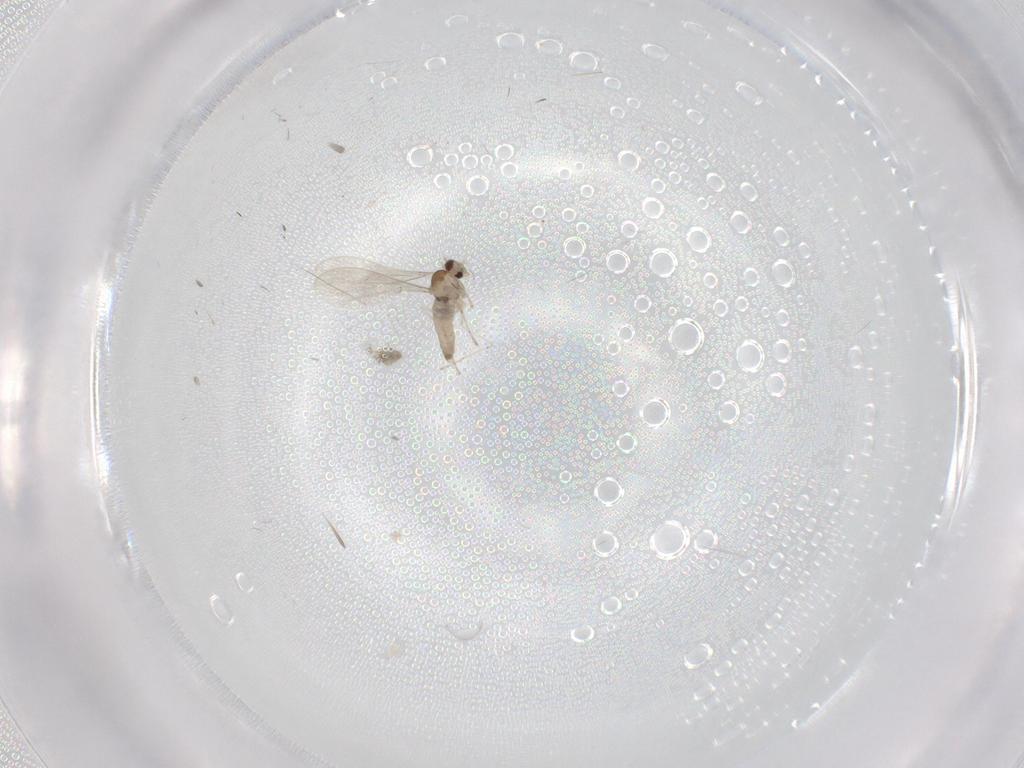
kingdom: Animalia
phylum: Arthropoda
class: Insecta
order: Diptera
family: Cecidomyiidae
